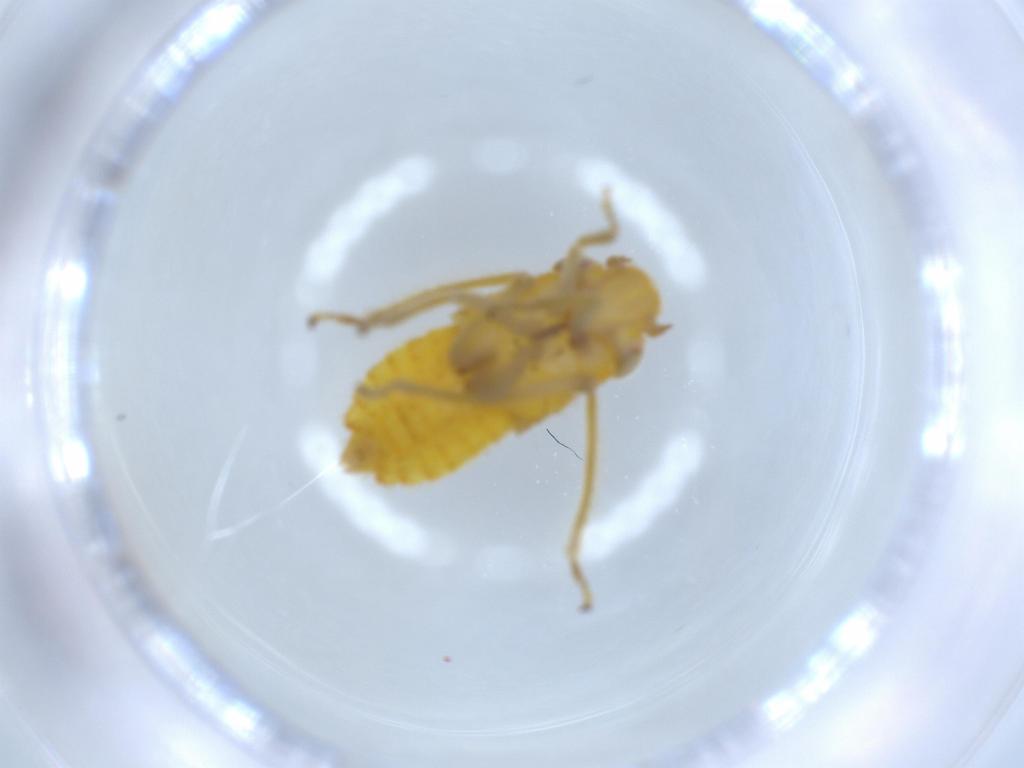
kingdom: Animalia
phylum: Arthropoda
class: Insecta
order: Hemiptera
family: Cicadellidae
